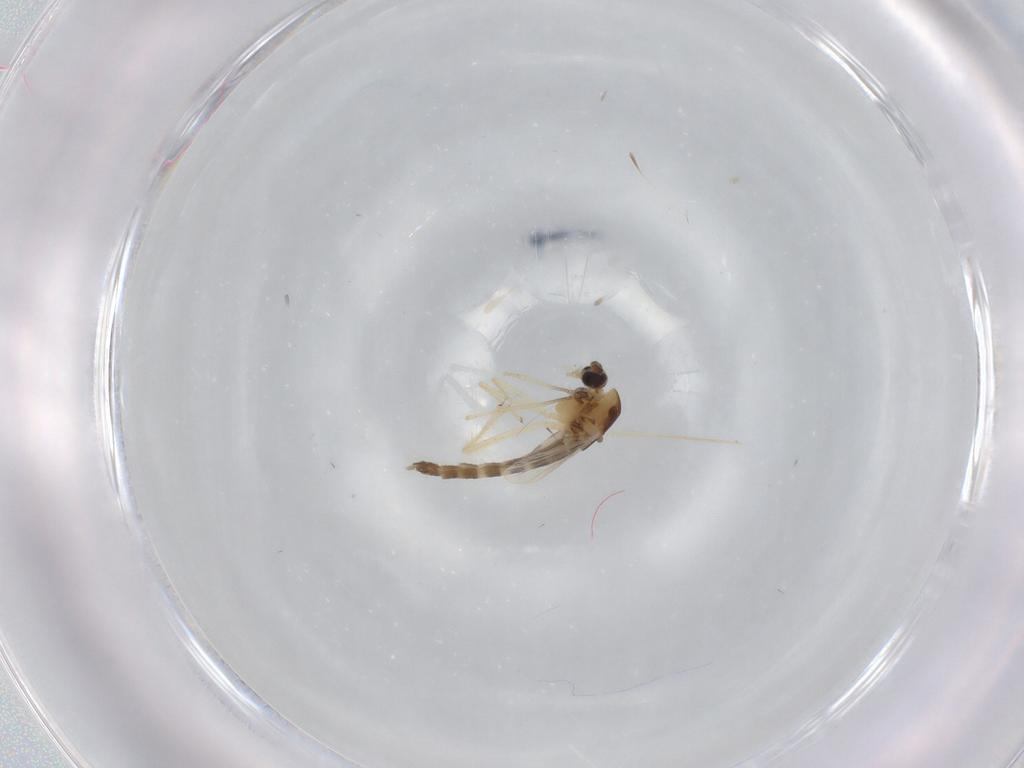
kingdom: Animalia
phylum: Arthropoda
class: Insecta
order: Diptera
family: Chironomidae
